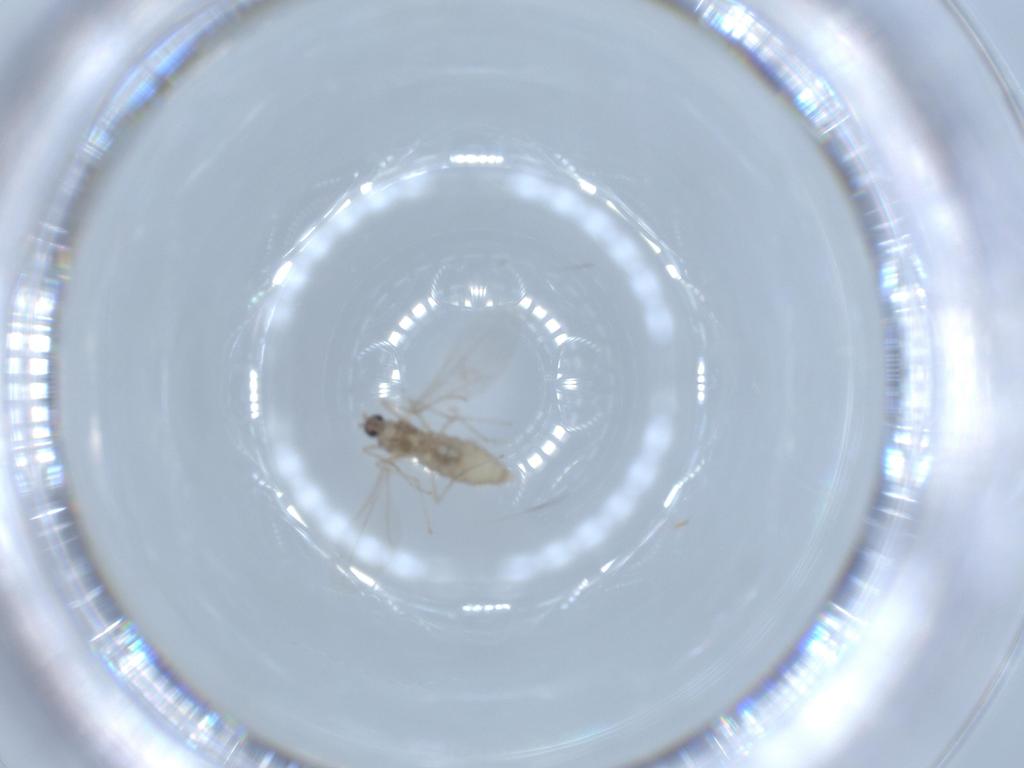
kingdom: Animalia
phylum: Arthropoda
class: Insecta
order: Diptera
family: Cecidomyiidae
